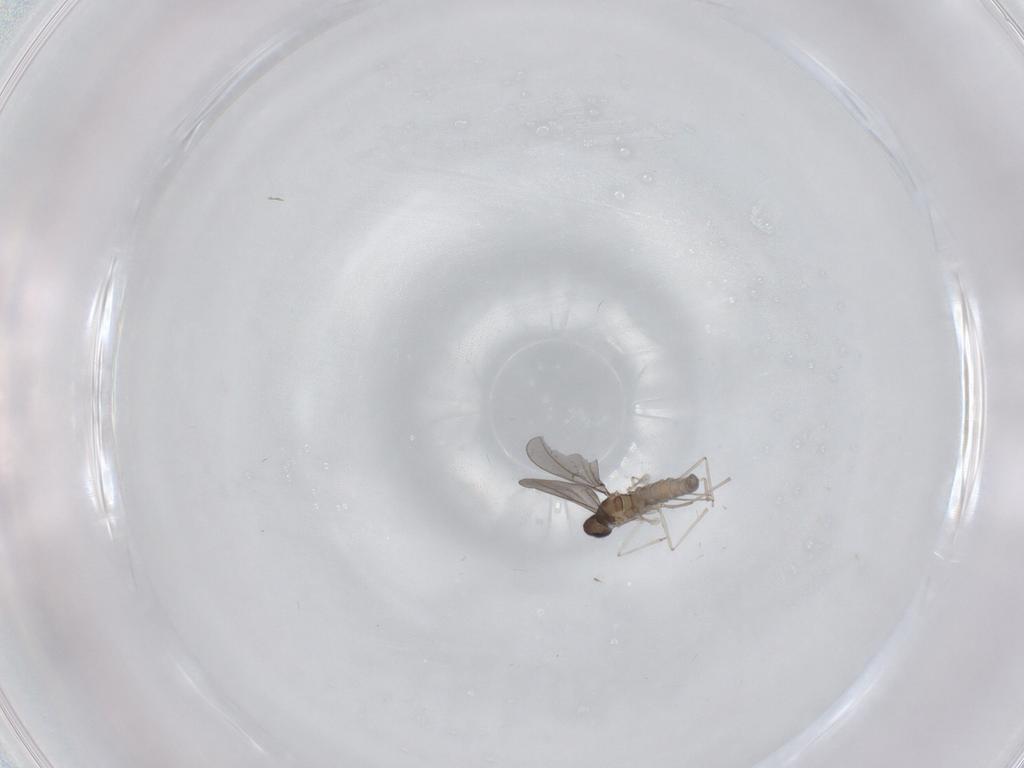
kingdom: Animalia
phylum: Arthropoda
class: Insecta
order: Diptera
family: Cecidomyiidae
